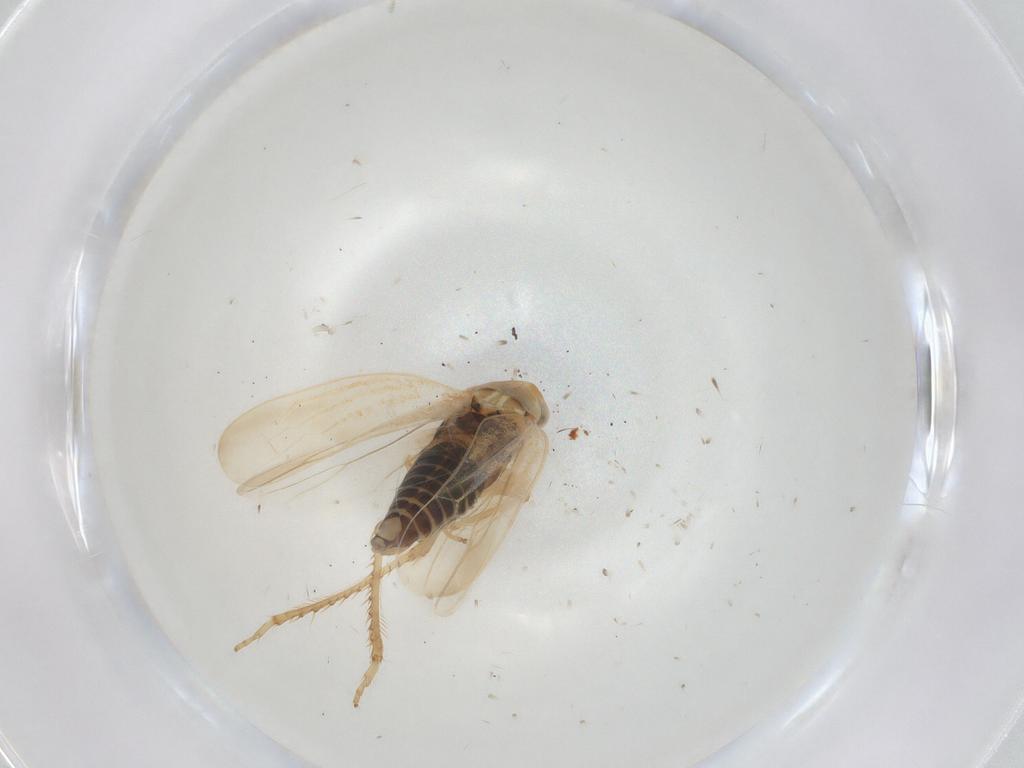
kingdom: Animalia
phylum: Arthropoda
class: Insecta
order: Hemiptera
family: Cicadellidae
